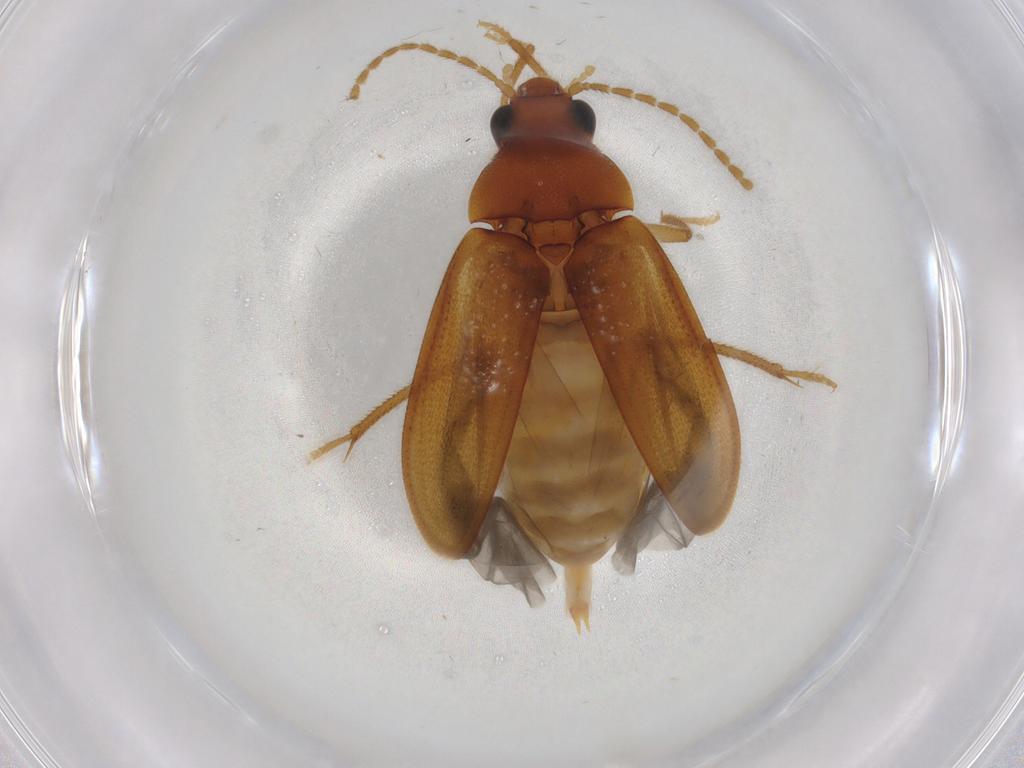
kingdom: Animalia
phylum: Arthropoda
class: Insecta
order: Coleoptera
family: Ptilodactylidae
